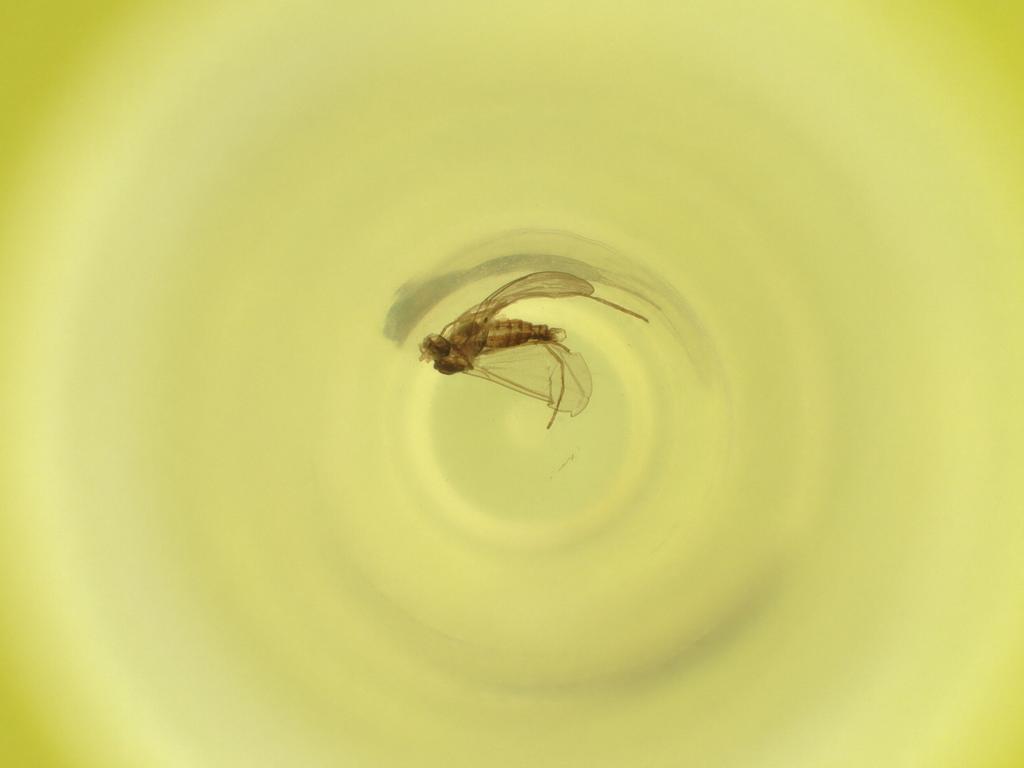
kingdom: Animalia
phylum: Arthropoda
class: Insecta
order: Diptera
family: Cecidomyiidae
